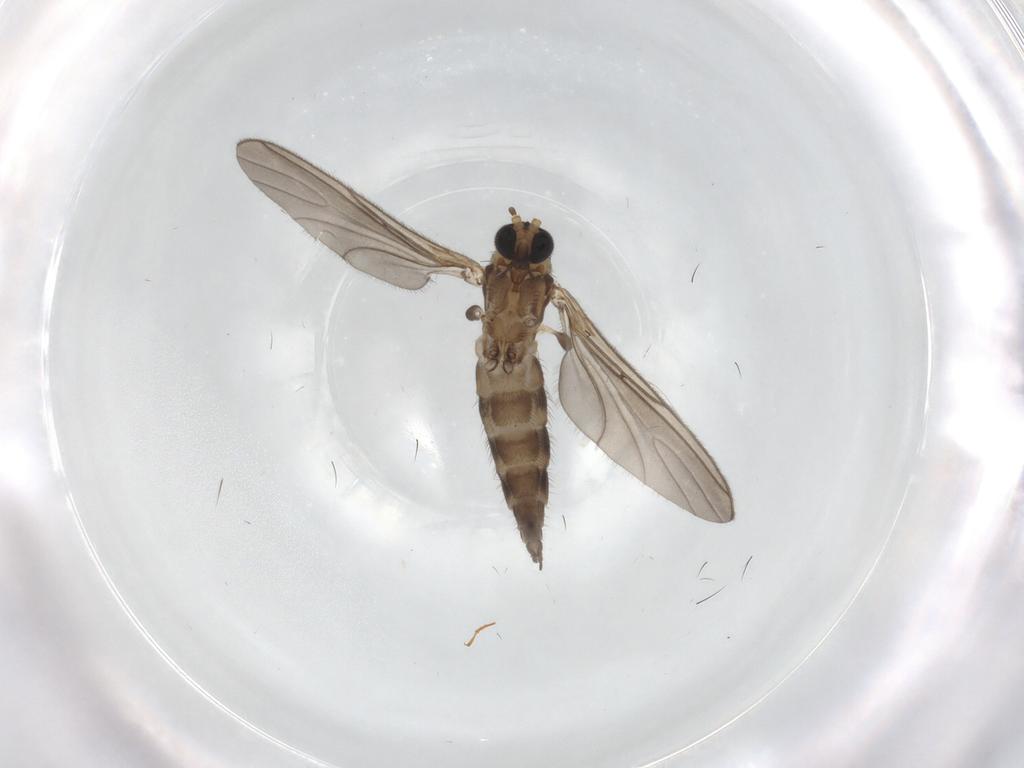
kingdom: Animalia
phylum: Arthropoda
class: Insecta
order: Diptera
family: Sciaridae
